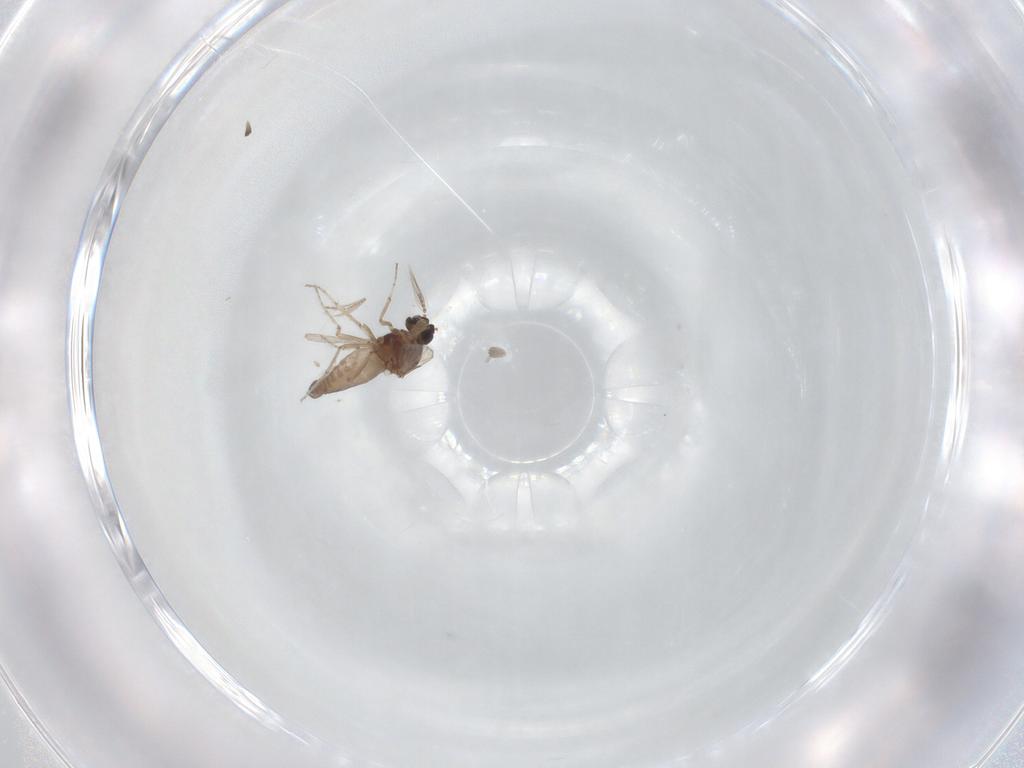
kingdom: Animalia
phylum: Arthropoda
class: Insecta
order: Diptera
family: Ceratopogonidae
